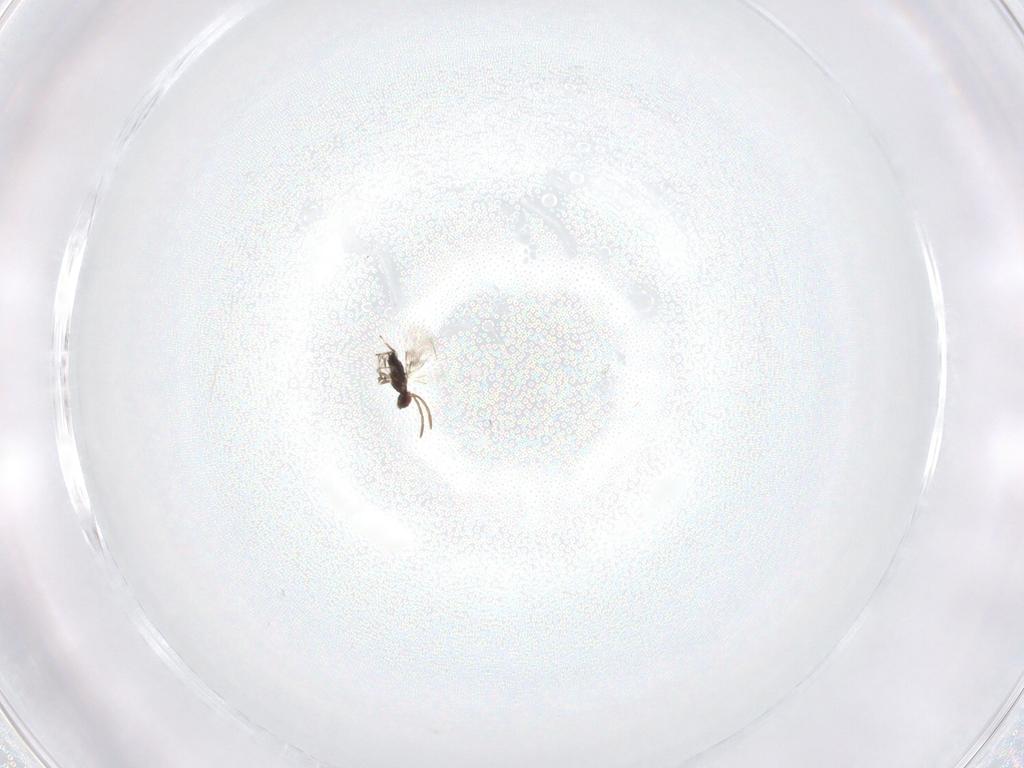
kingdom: Animalia
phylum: Arthropoda
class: Insecta
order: Hymenoptera
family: Azotidae
